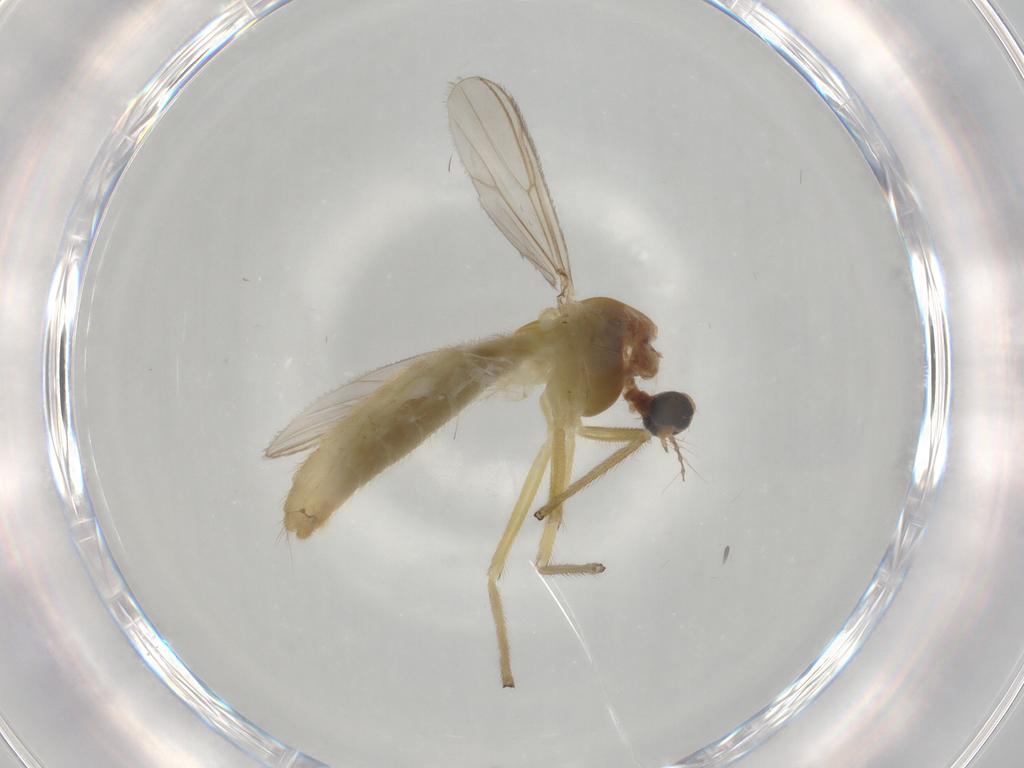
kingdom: Animalia
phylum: Arthropoda
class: Insecta
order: Diptera
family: Chironomidae
